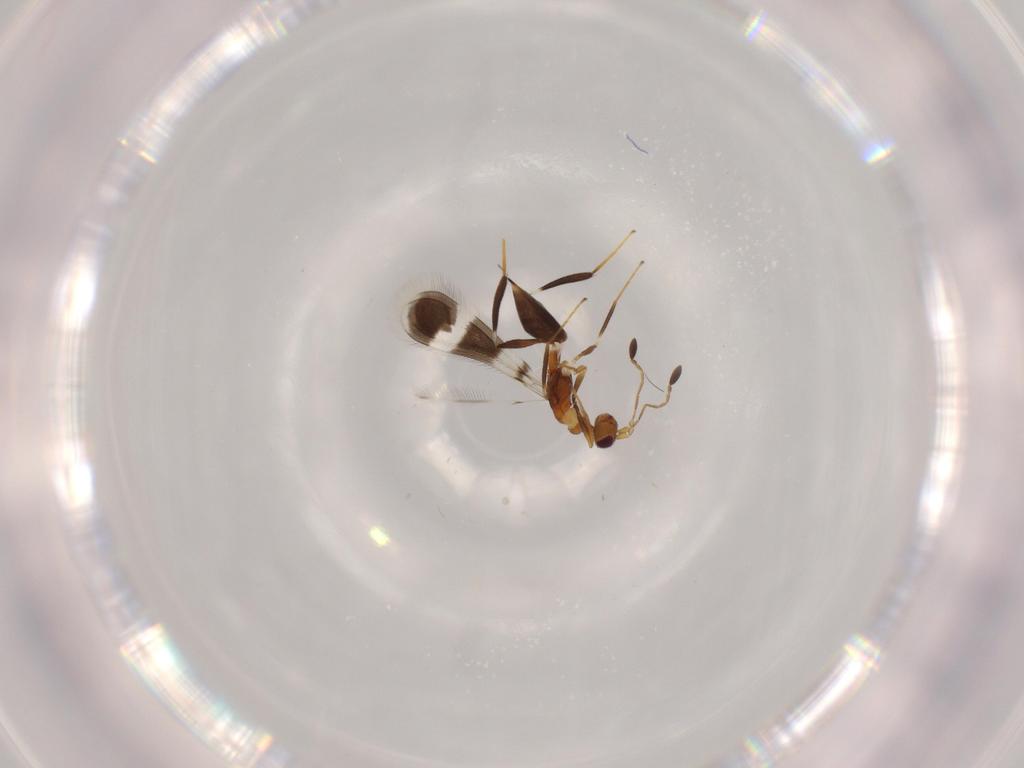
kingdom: Animalia
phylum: Arthropoda
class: Insecta
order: Hymenoptera
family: Mymaridae
